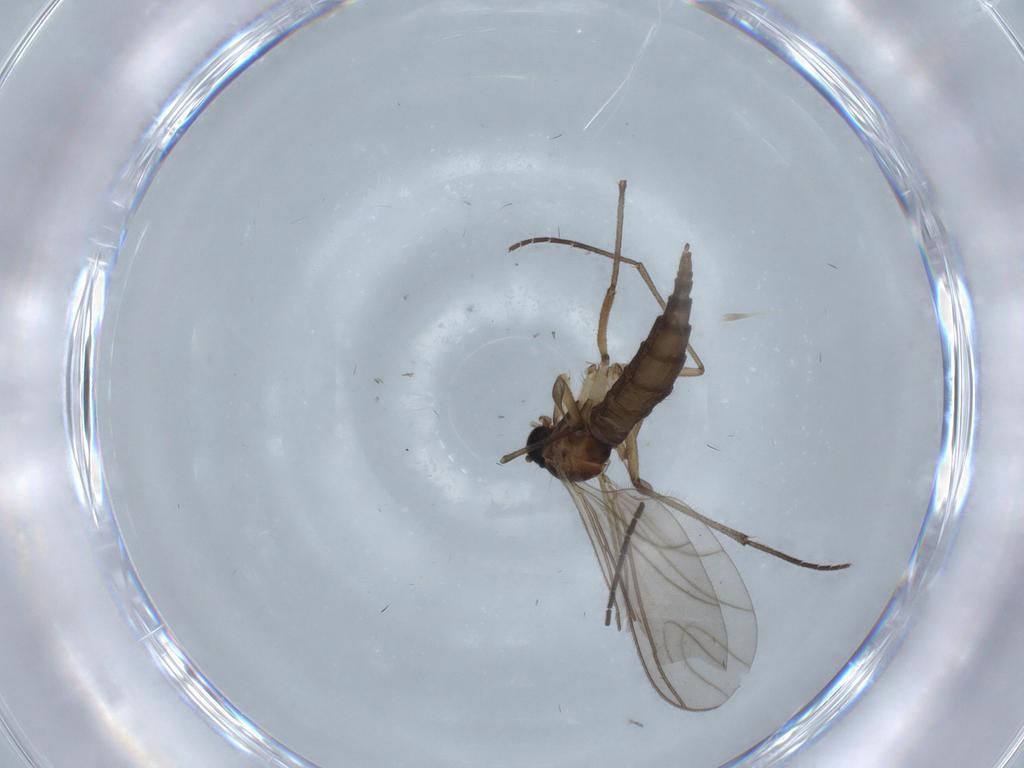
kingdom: Animalia
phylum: Arthropoda
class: Insecta
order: Diptera
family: Sciaridae
